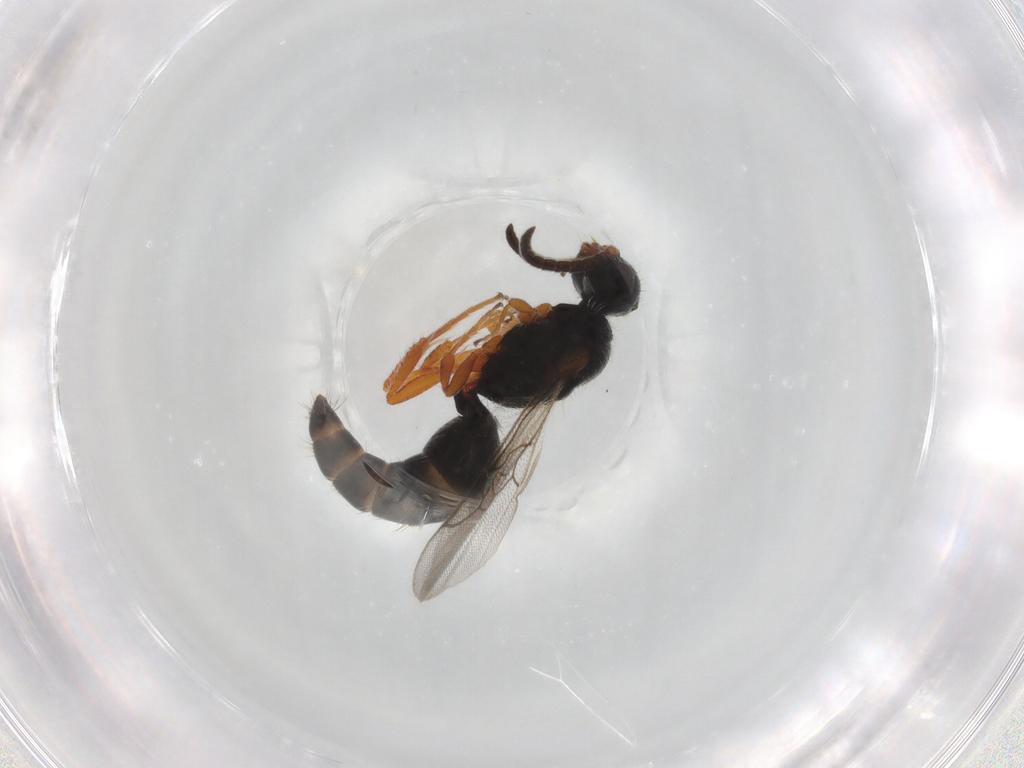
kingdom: Animalia
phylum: Arthropoda
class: Insecta
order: Hymenoptera
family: Mutillidae
